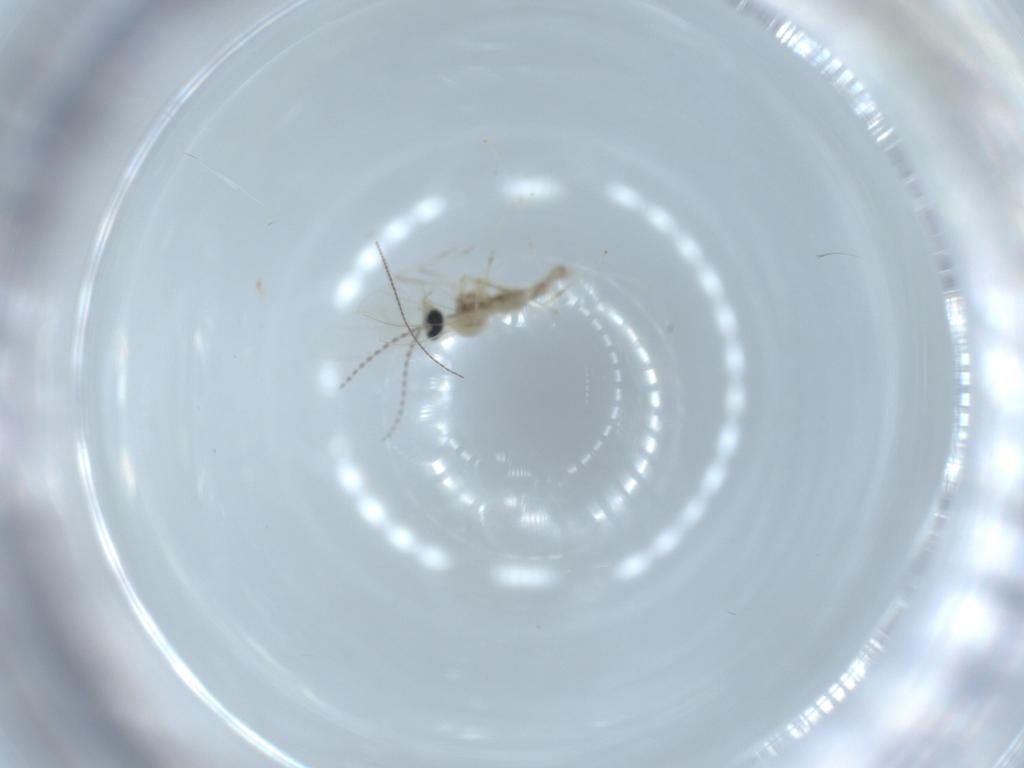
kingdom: Animalia
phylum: Arthropoda
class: Insecta
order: Diptera
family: Cecidomyiidae
